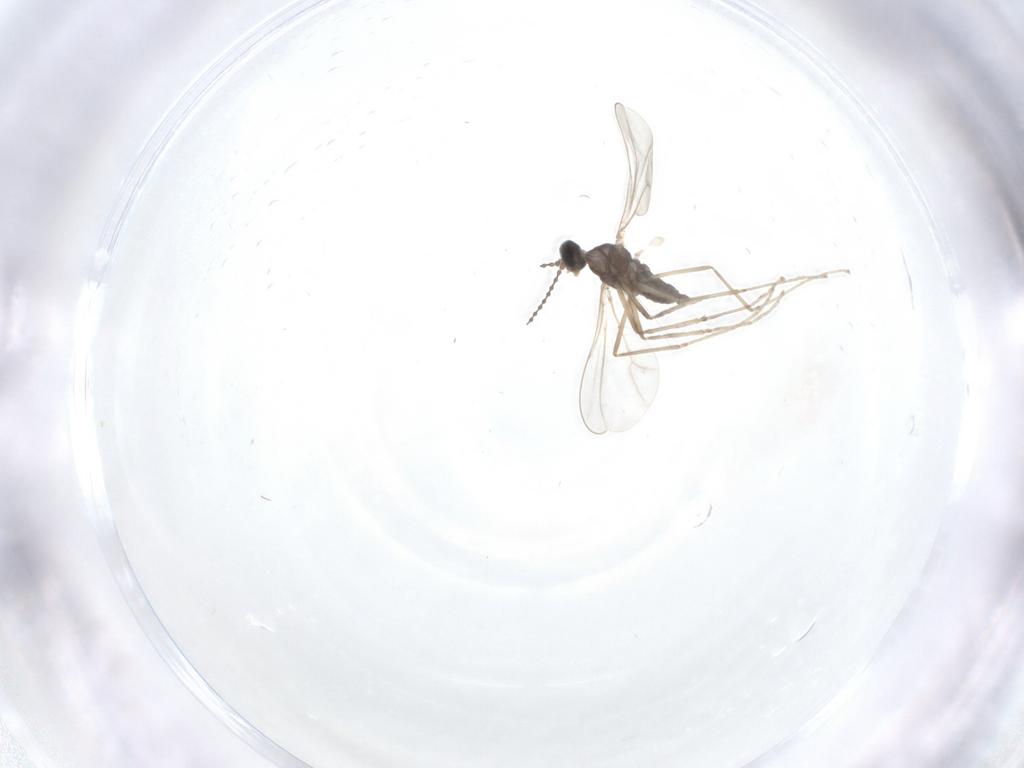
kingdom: Animalia
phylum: Arthropoda
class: Insecta
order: Diptera
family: Cecidomyiidae
